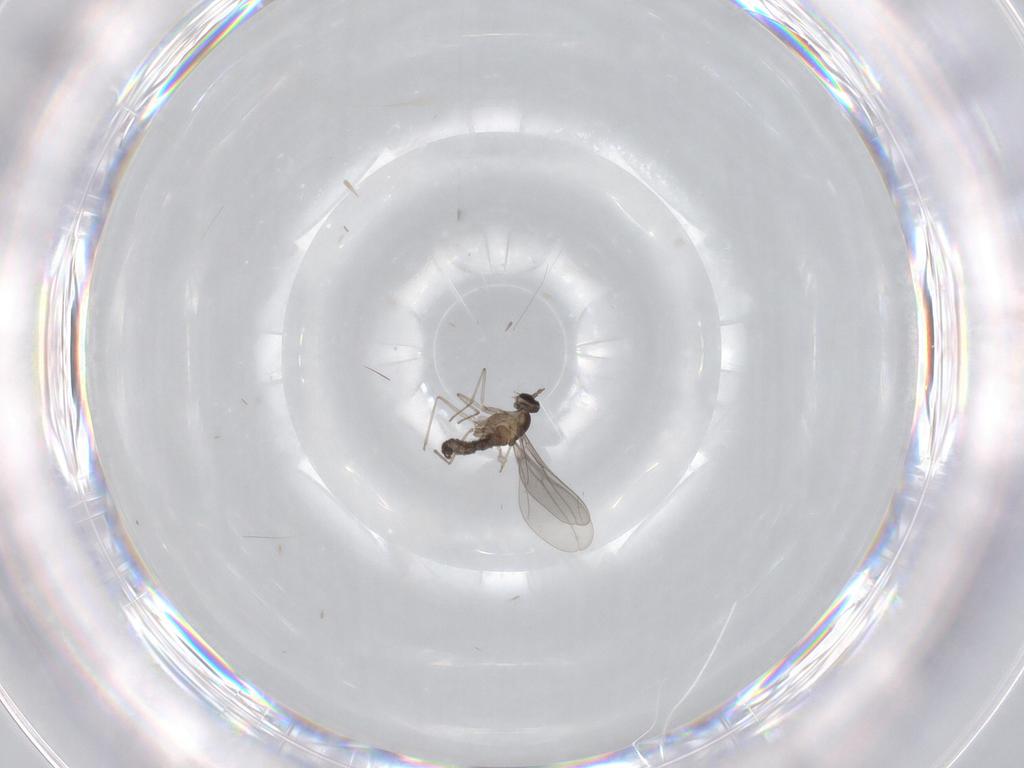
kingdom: Animalia
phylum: Arthropoda
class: Insecta
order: Diptera
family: Cecidomyiidae
